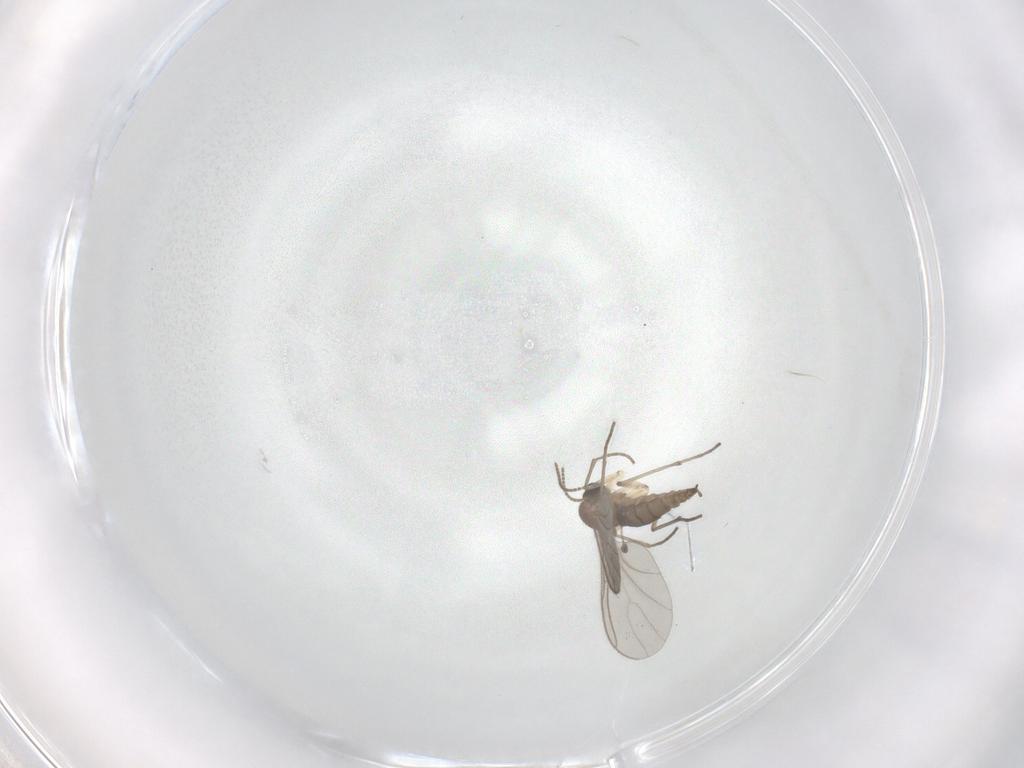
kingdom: Animalia
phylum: Arthropoda
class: Insecta
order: Diptera
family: Sciaridae
